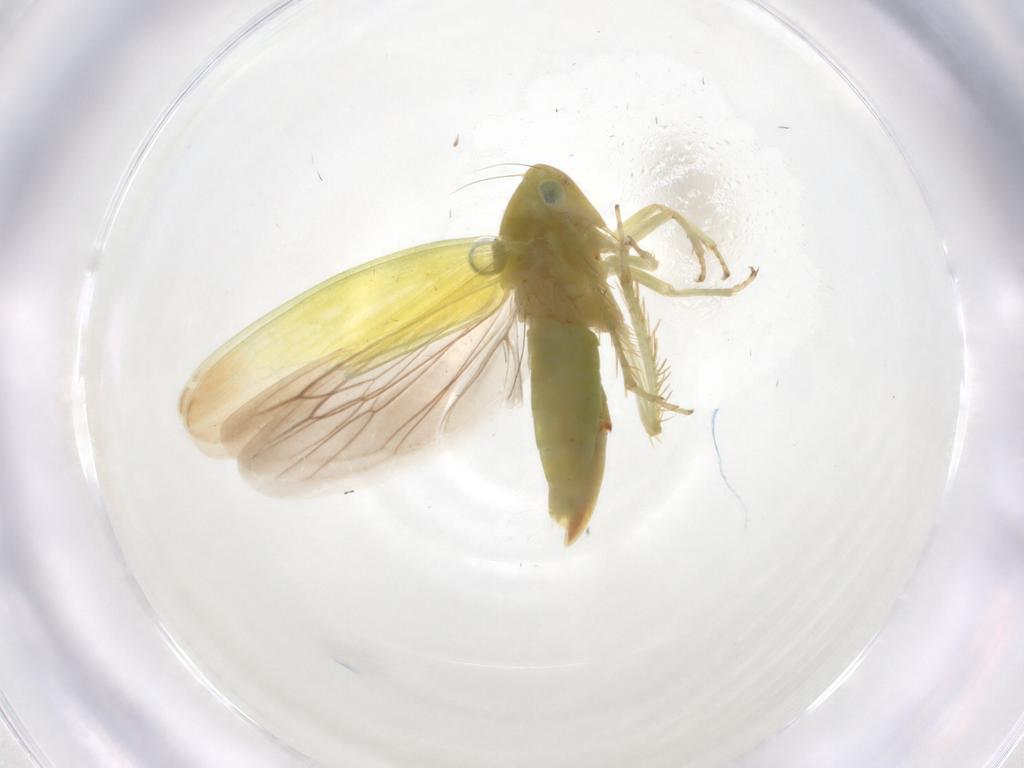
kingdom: Animalia
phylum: Arthropoda
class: Insecta
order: Hemiptera
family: Cicadellidae
